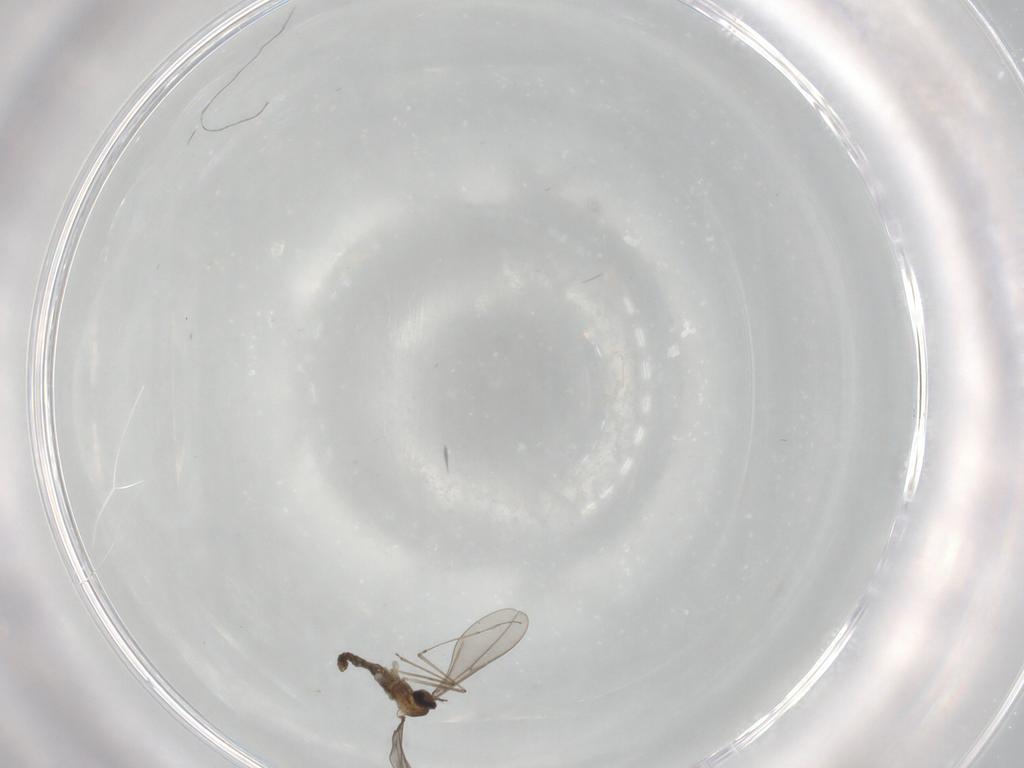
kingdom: Animalia
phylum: Arthropoda
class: Insecta
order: Diptera
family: Cecidomyiidae
